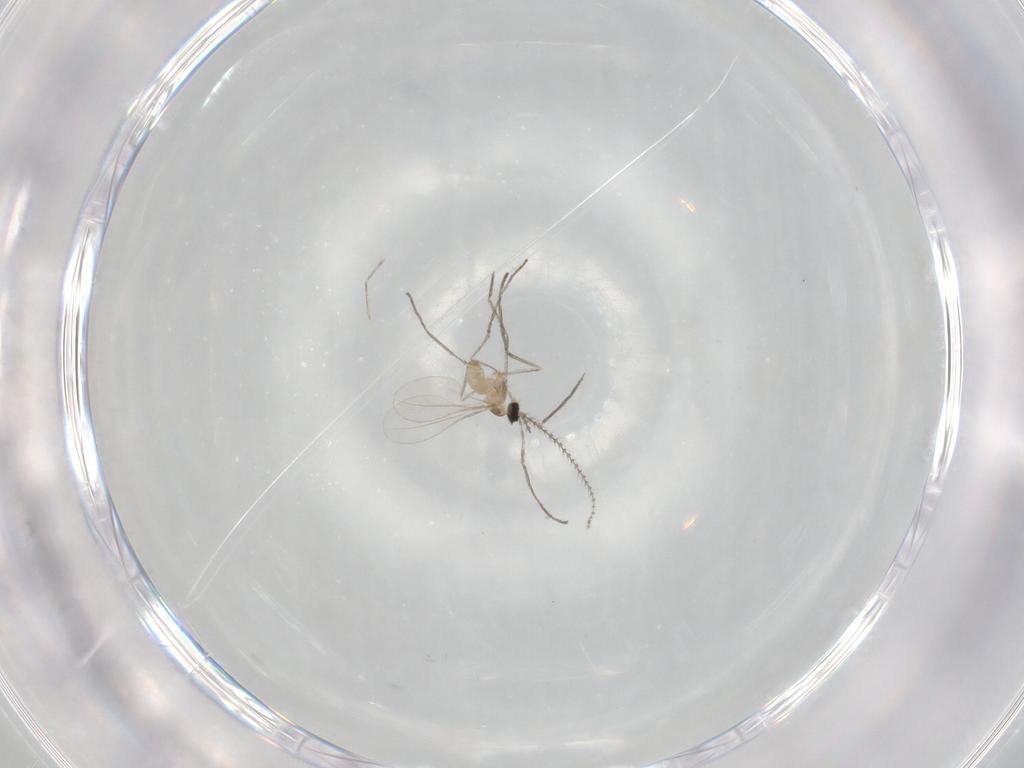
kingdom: Animalia
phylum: Arthropoda
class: Insecta
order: Diptera
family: Cecidomyiidae
